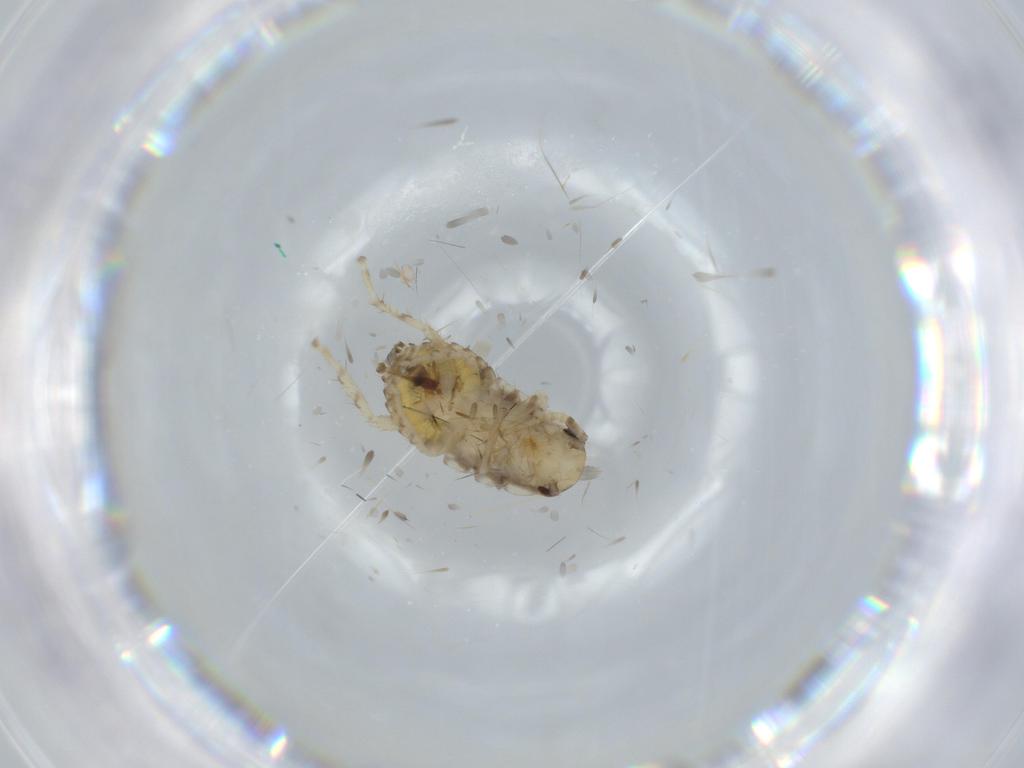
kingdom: Animalia
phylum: Arthropoda
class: Insecta
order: Blattodea
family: Ectobiidae
